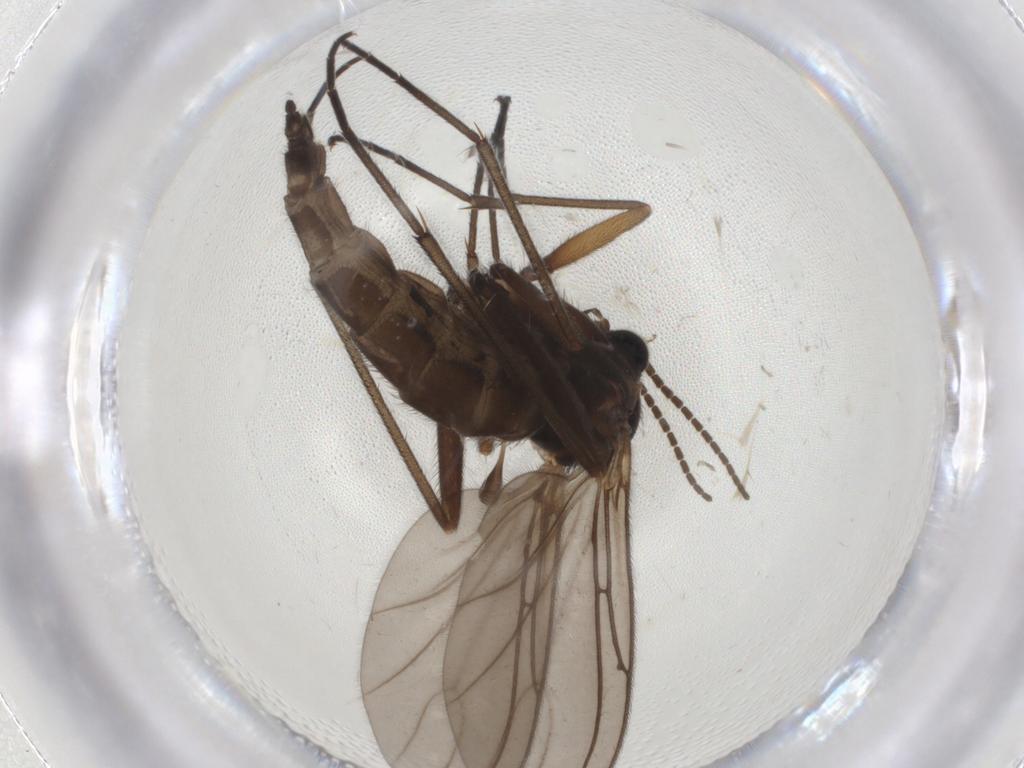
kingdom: Animalia
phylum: Arthropoda
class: Insecta
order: Diptera
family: Sciaridae
